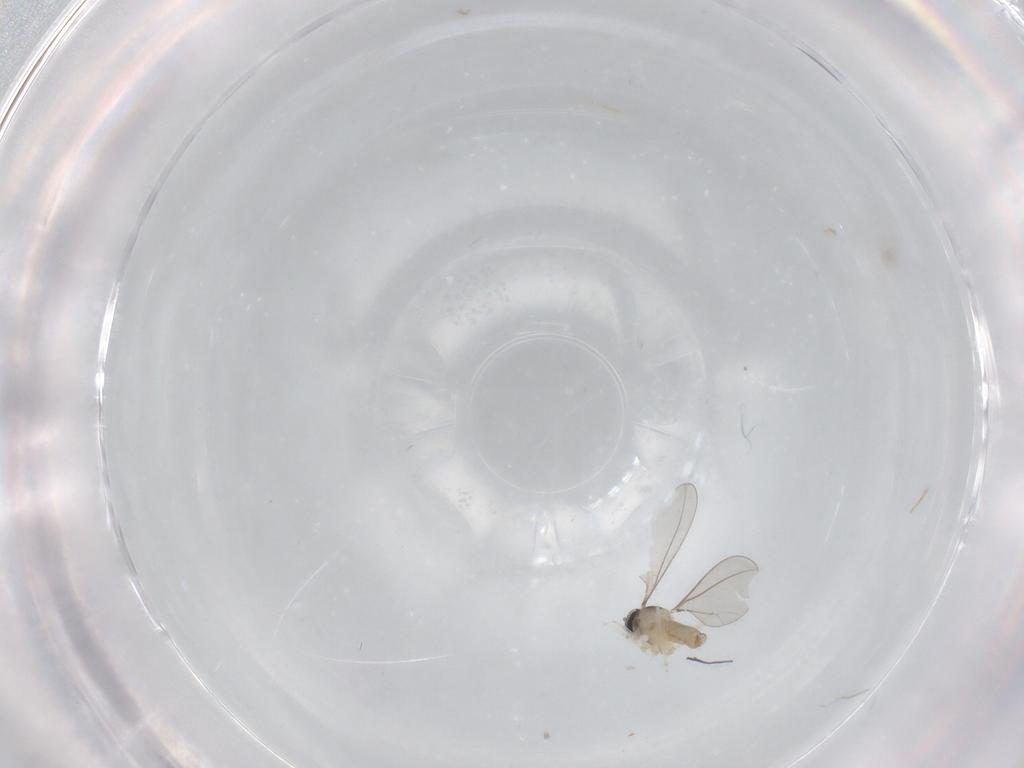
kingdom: Animalia
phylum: Arthropoda
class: Insecta
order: Diptera
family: Cecidomyiidae
